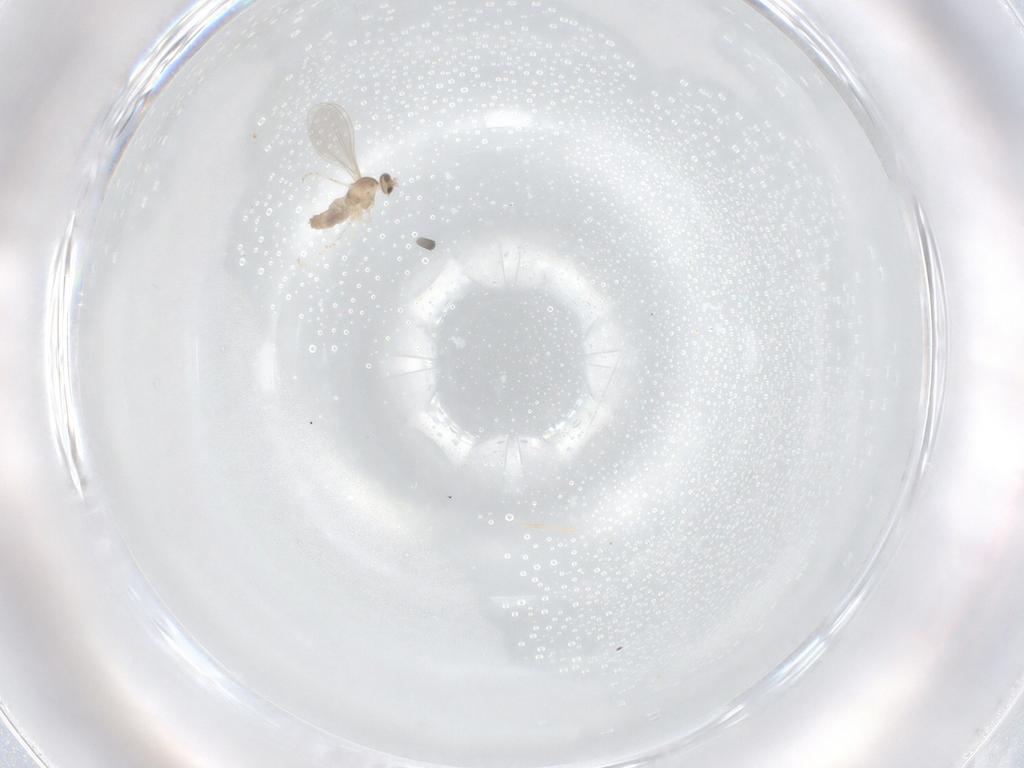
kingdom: Animalia
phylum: Arthropoda
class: Insecta
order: Diptera
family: Cecidomyiidae
